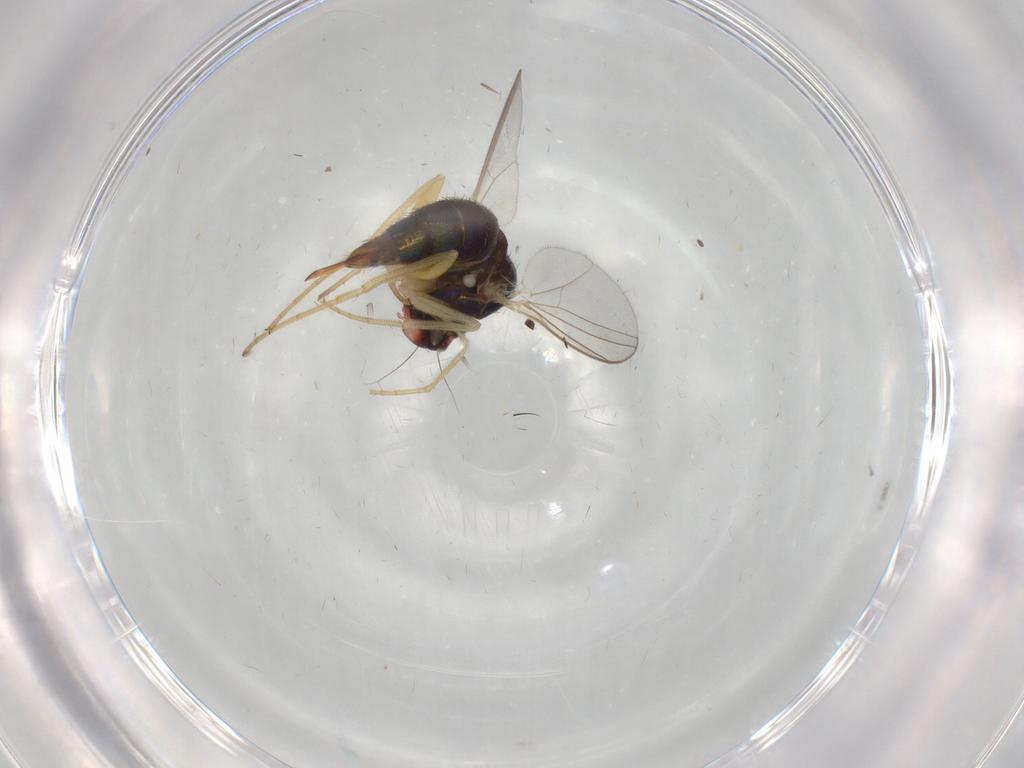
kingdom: Animalia
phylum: Arthropoda
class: Insecta
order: Diptera
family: Dolichopodidae
